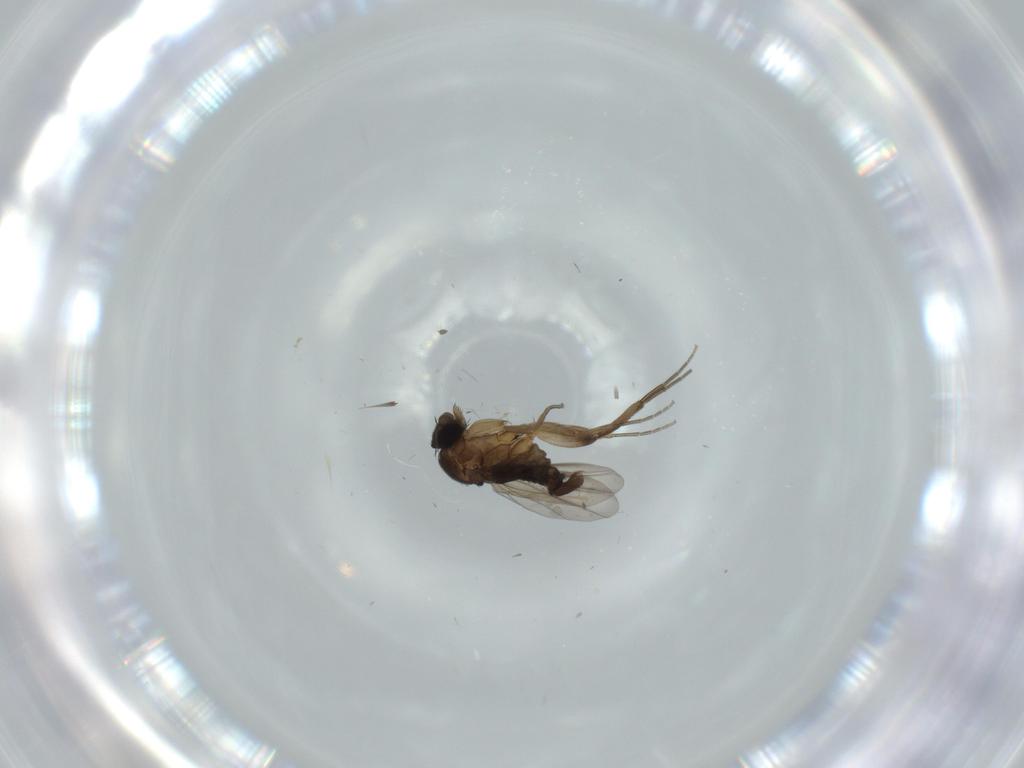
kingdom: Animalia
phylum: Arthropoda
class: Insecta
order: Diptera
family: Phoridae
